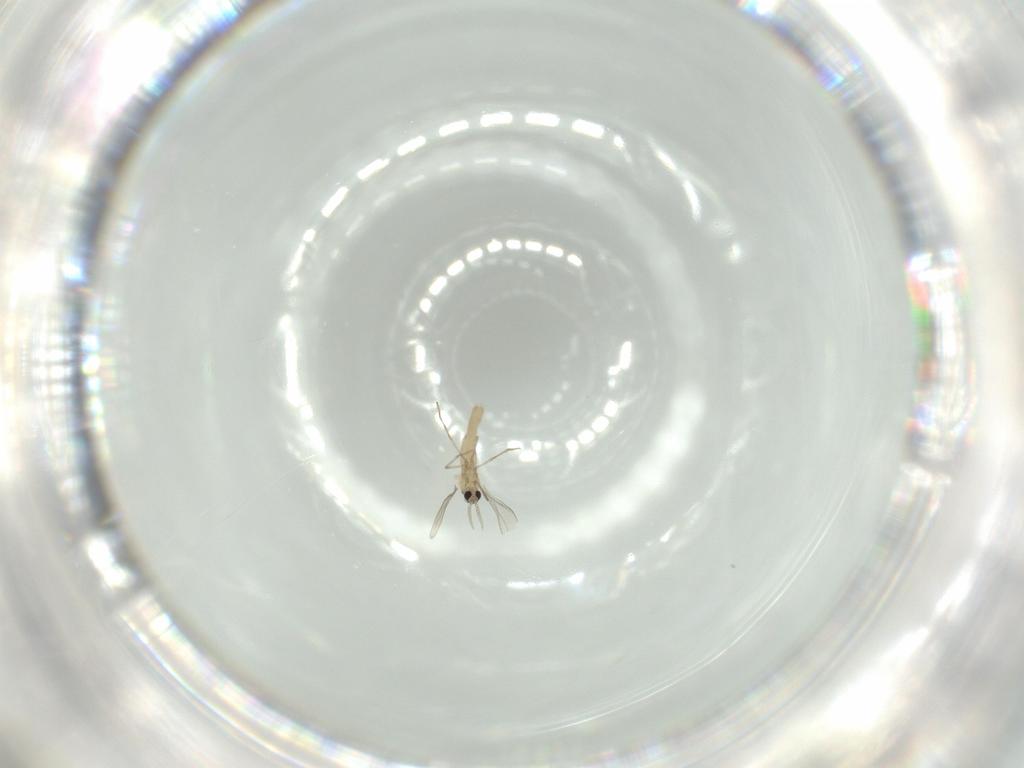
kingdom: Animalia
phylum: Arthropoda
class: Insecta
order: Diptera
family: Cecidomyiidae
